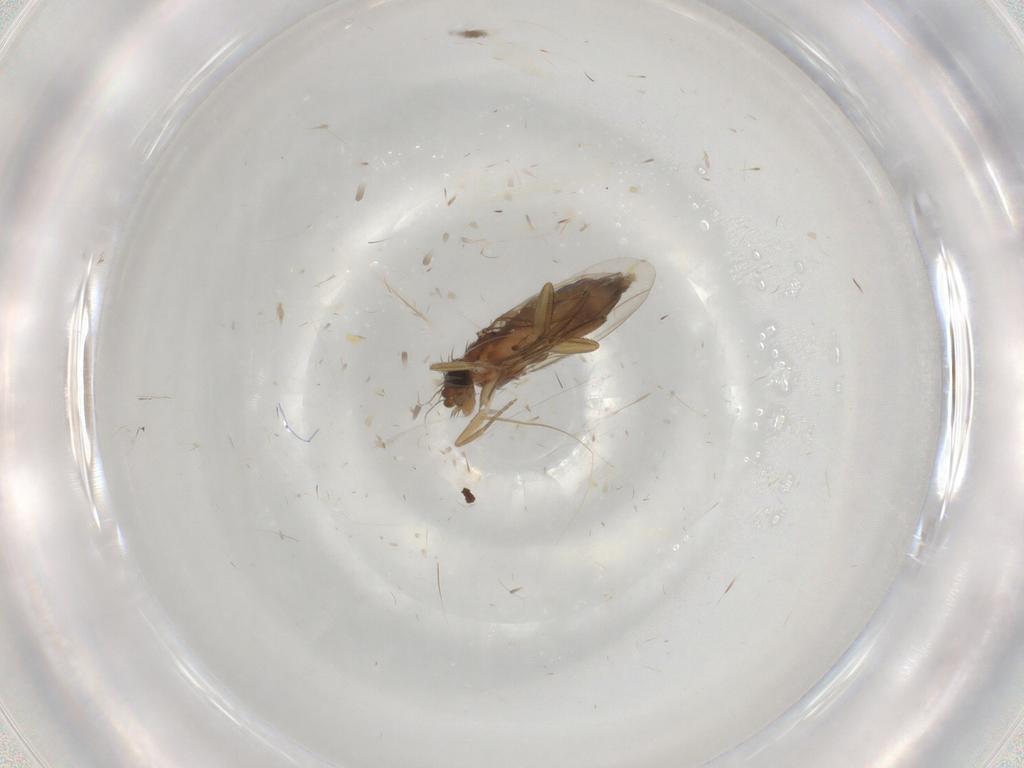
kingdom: Animalia
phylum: Arthropoda
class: Insecta
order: Diptera
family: Phoridae
